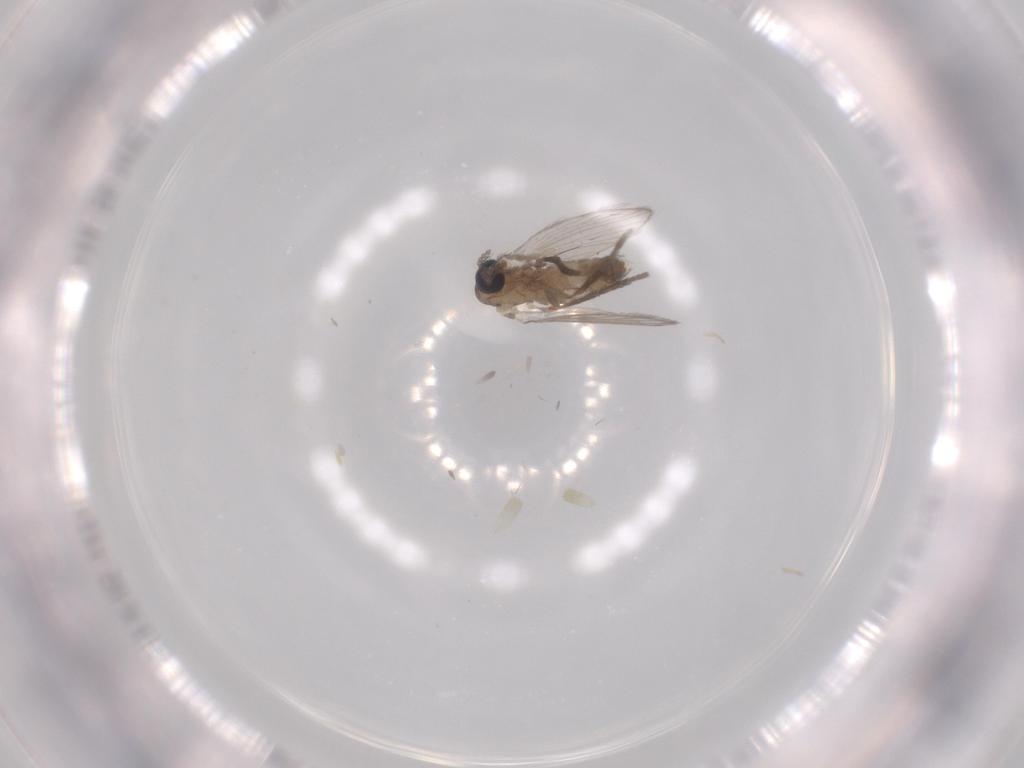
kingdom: Animalia
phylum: Arthropoda
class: Insecta
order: Diptera
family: Psychodidae
